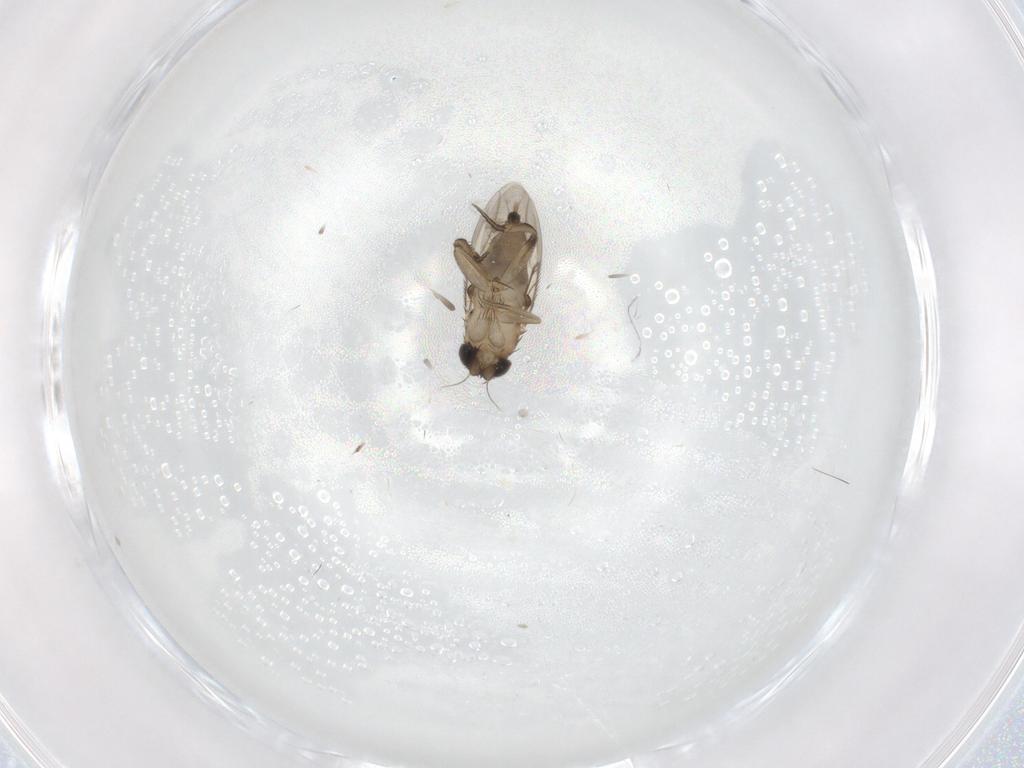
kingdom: Animalia
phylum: Arthropoda
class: Insecta
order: Diptera
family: Phoridae
